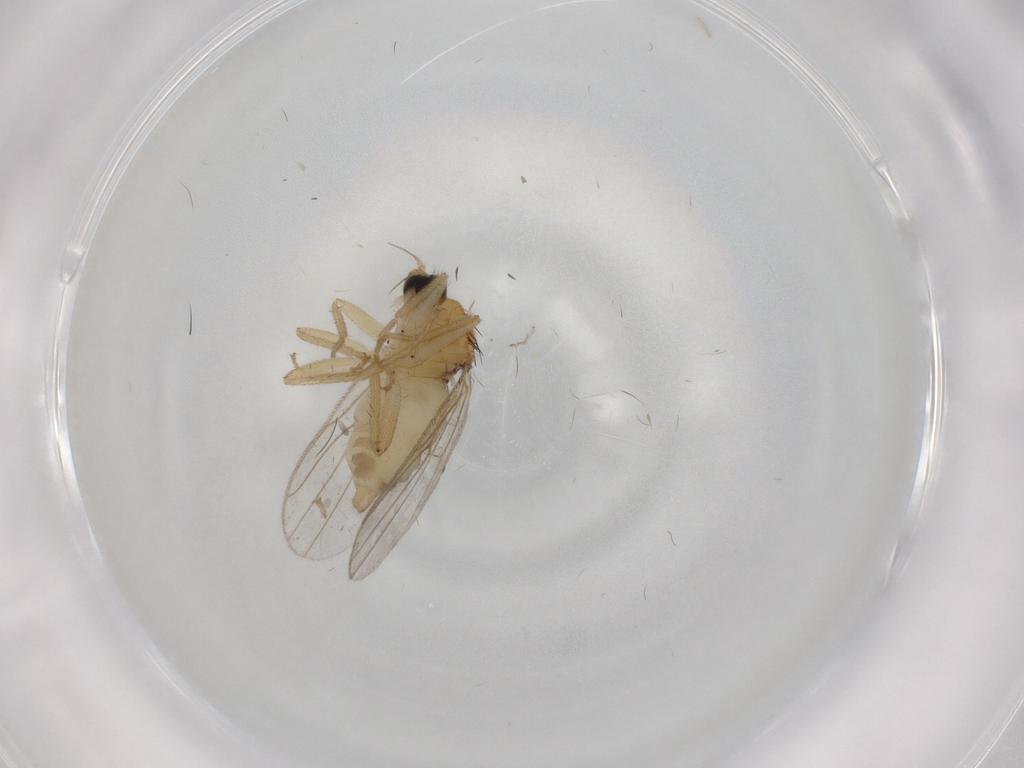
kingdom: Animalia
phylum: Arthropoda
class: Insecta
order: Diptera
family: Hybotidae
